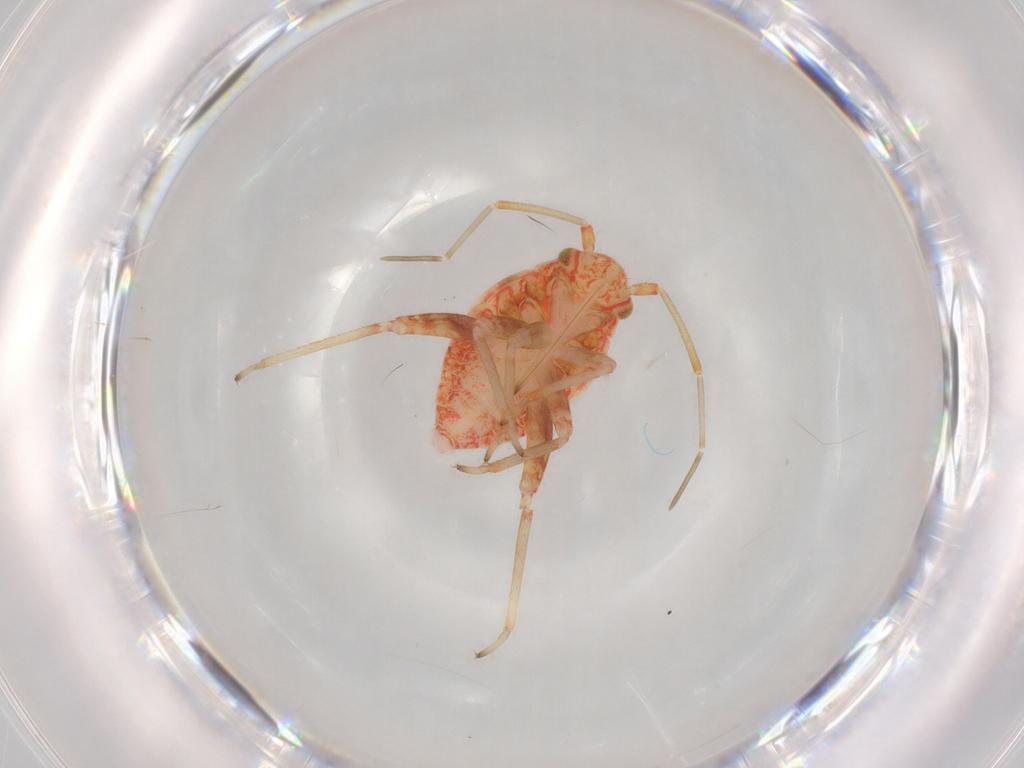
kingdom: Animalia
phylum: Arthropoda
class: Insecta
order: Hemiptera
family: Miridae
